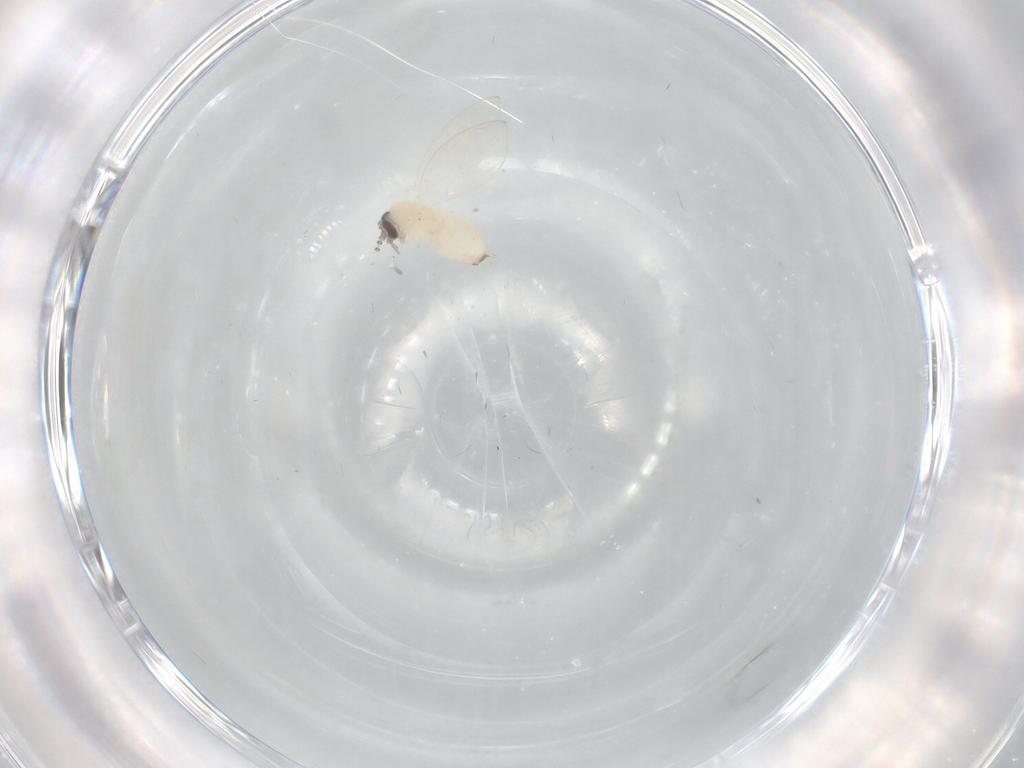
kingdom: Animalia
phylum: Arthropoda
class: Insecta
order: Diptera
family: Psychodidae
